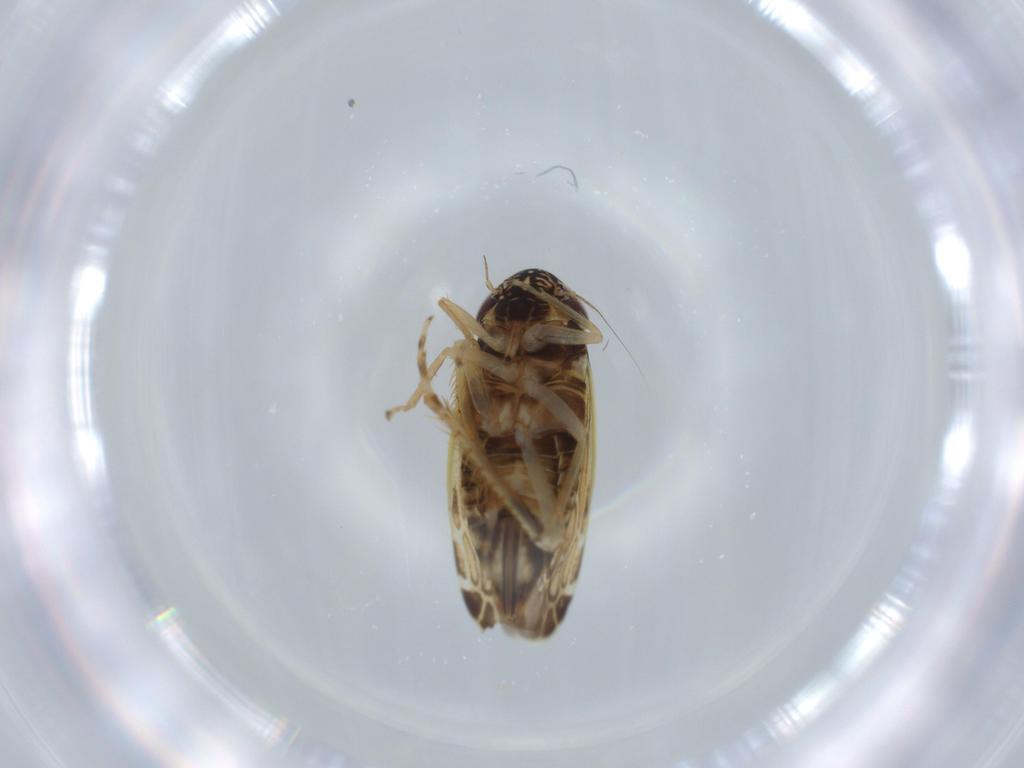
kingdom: Animalia
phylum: Arthropoda
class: Insecta
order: Hemiptera
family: Cicadellidae
